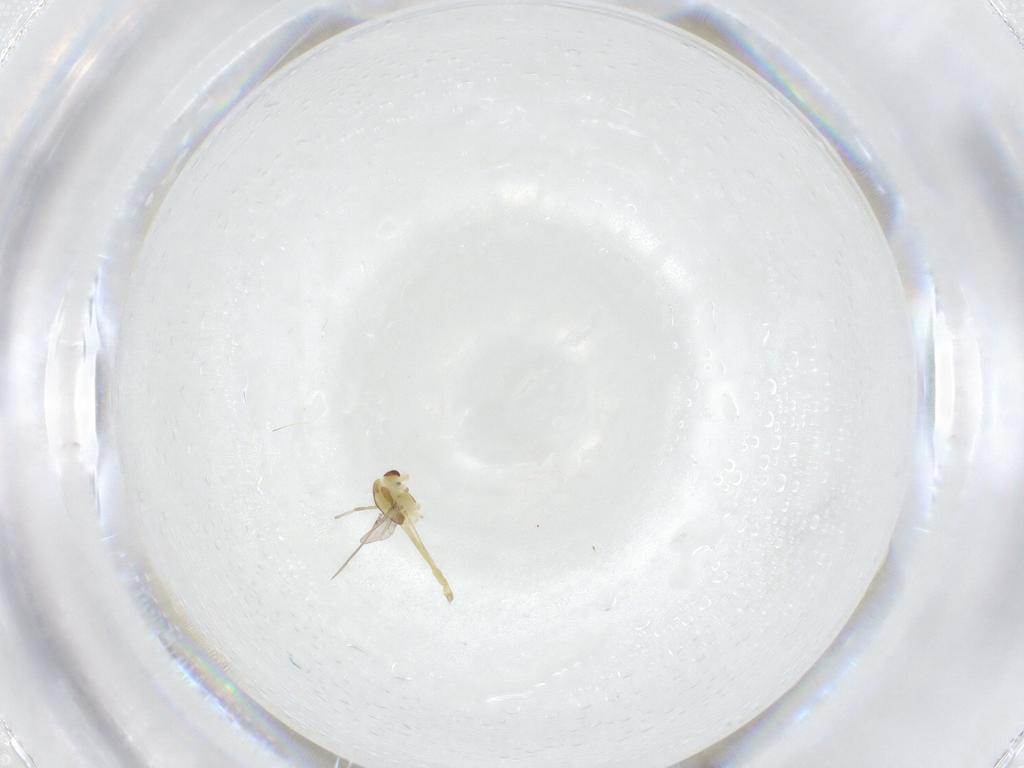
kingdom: Animalia
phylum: Arthropoda
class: Insecta
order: Diptera
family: Chironomidae
